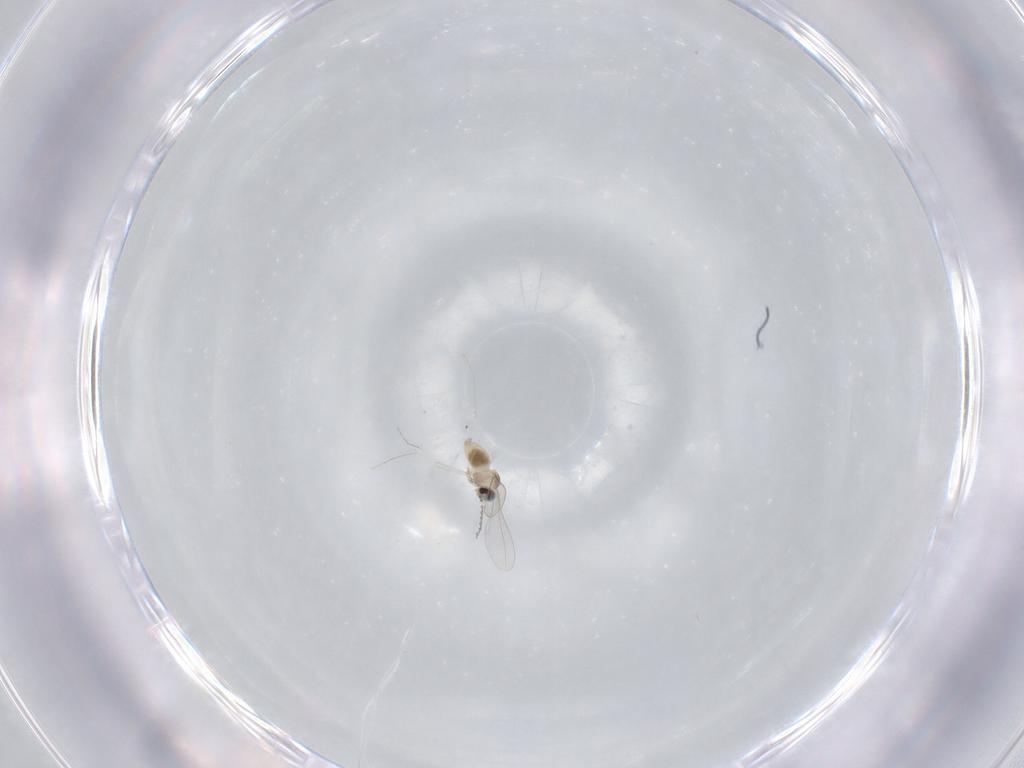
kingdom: Animalia
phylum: Arthropoda
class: Insecta
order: Diptera
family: Cecidomyiidae
